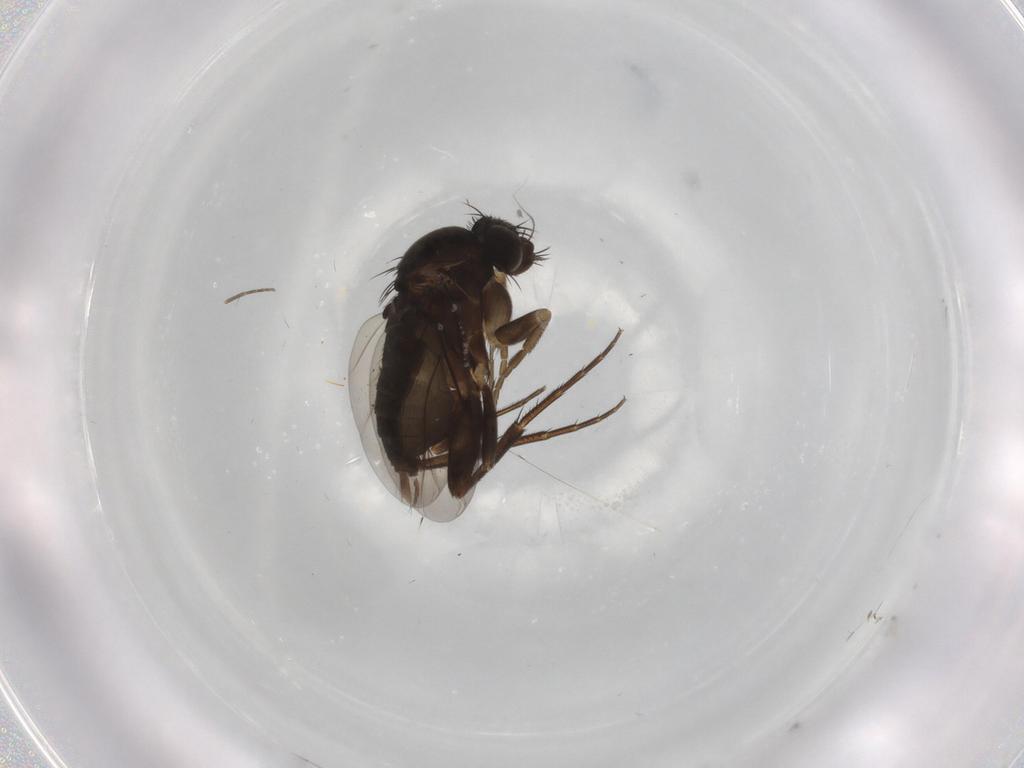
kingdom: Animalia
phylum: Arthropoda
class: Insecta
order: Diptera
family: Phoridae
